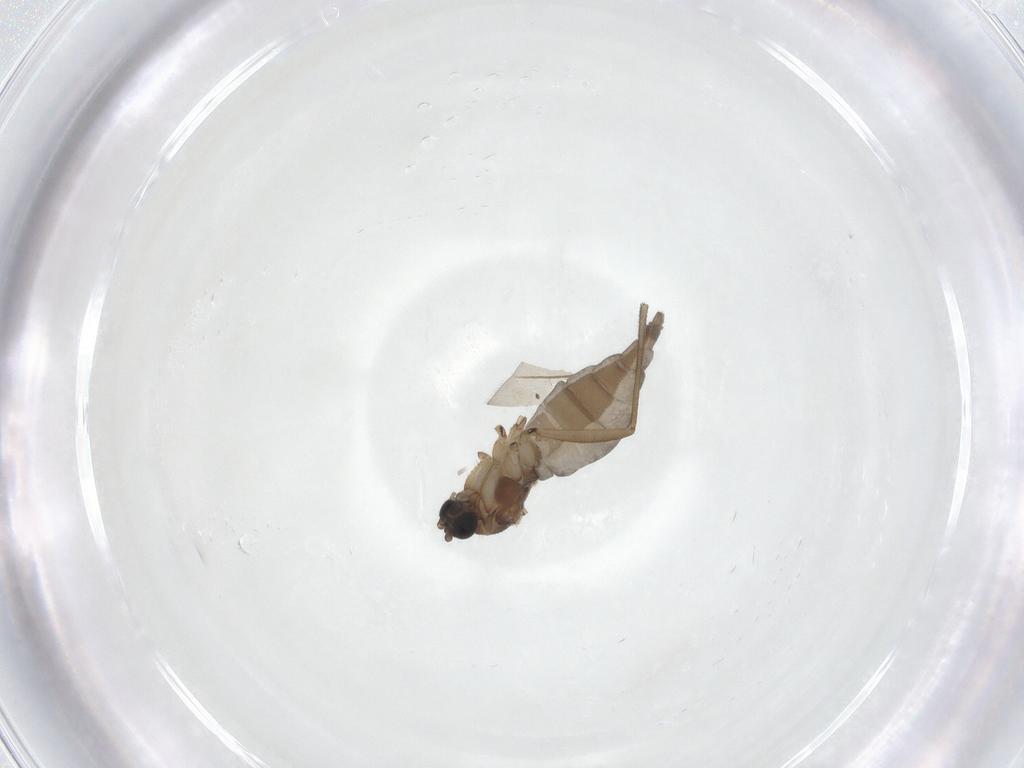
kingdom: Animalia
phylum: Arthropoda
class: Insecta
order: Diptera
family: Sciaridae
